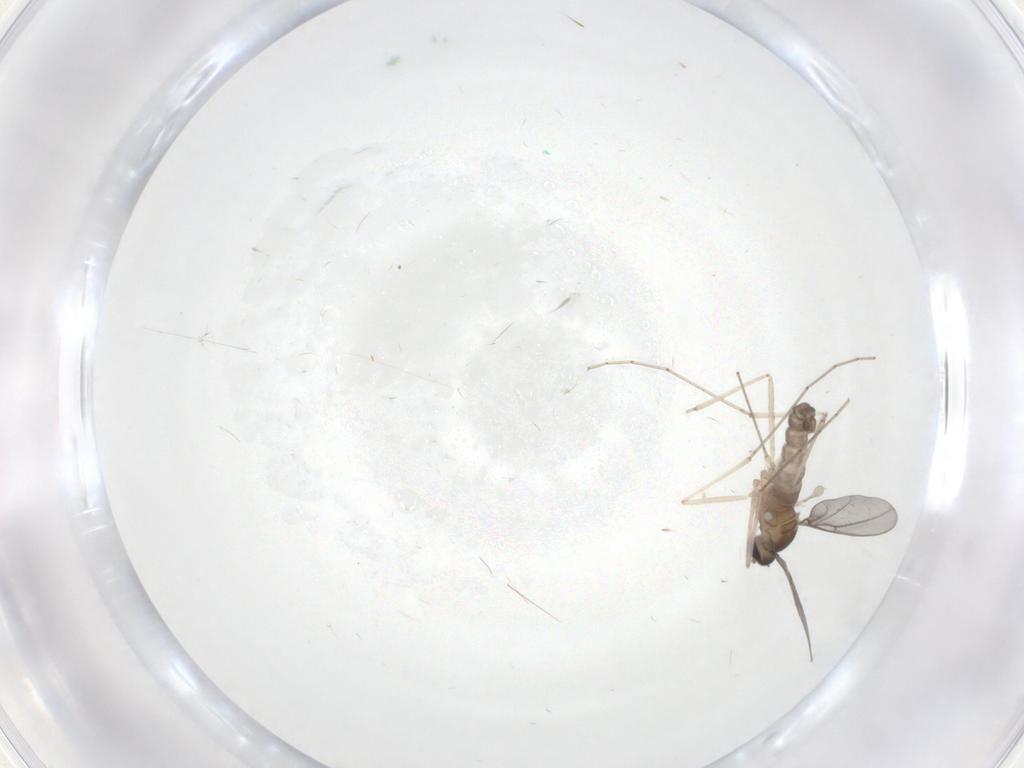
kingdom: Animalia
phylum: Arthropoda
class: Insecta
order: Diptera
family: Cecidomyiidae
